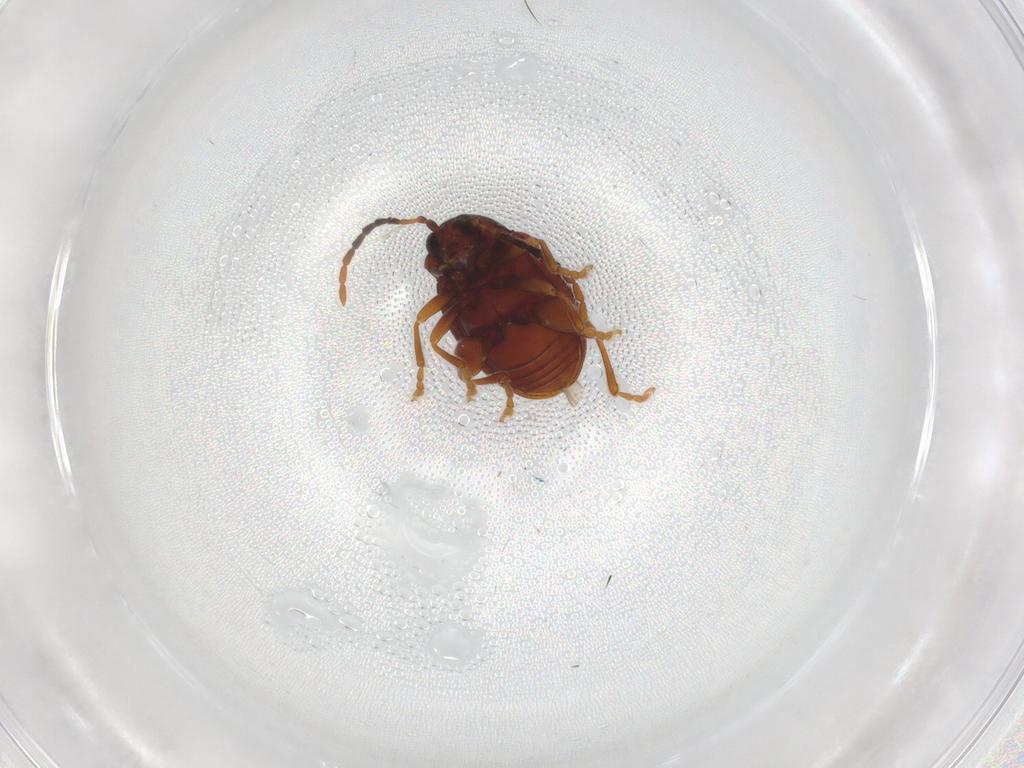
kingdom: Animalia
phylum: Arthropoda
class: Insecta
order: Coleoptera
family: Chrysomelidae
